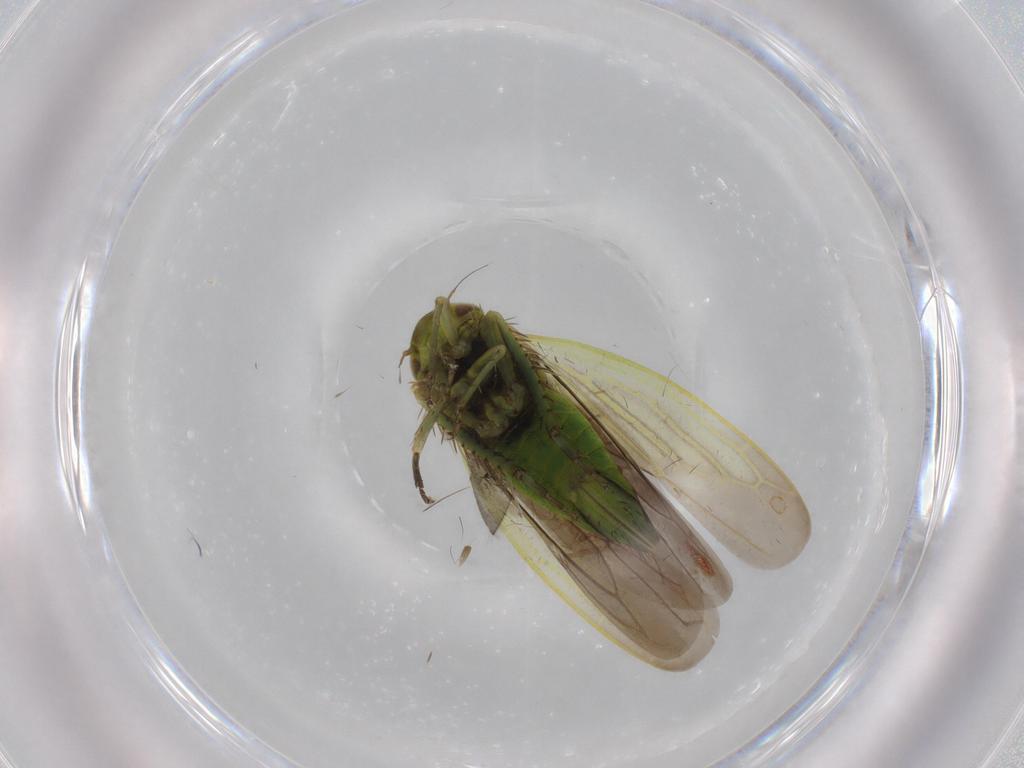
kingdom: Animalia
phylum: Arthropoda
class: Insecta
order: Hemiptera
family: Cicadellidae
